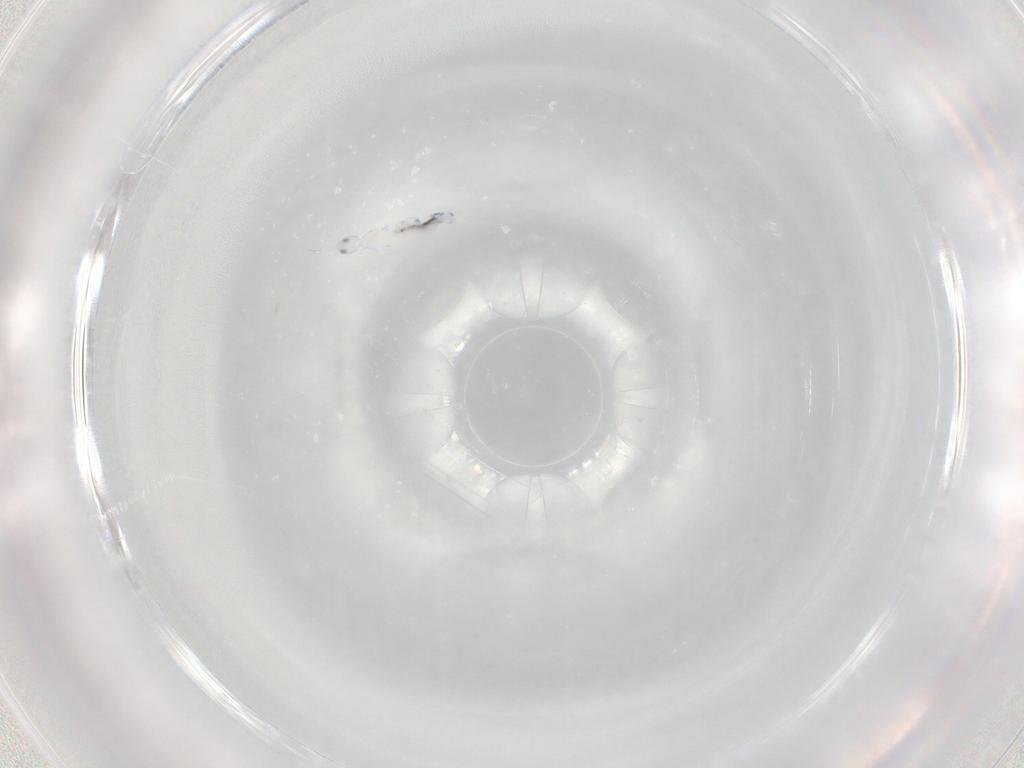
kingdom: Animalia
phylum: Arthropoda
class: Collembola
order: Entomobryomorpha
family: Entomobryidae
